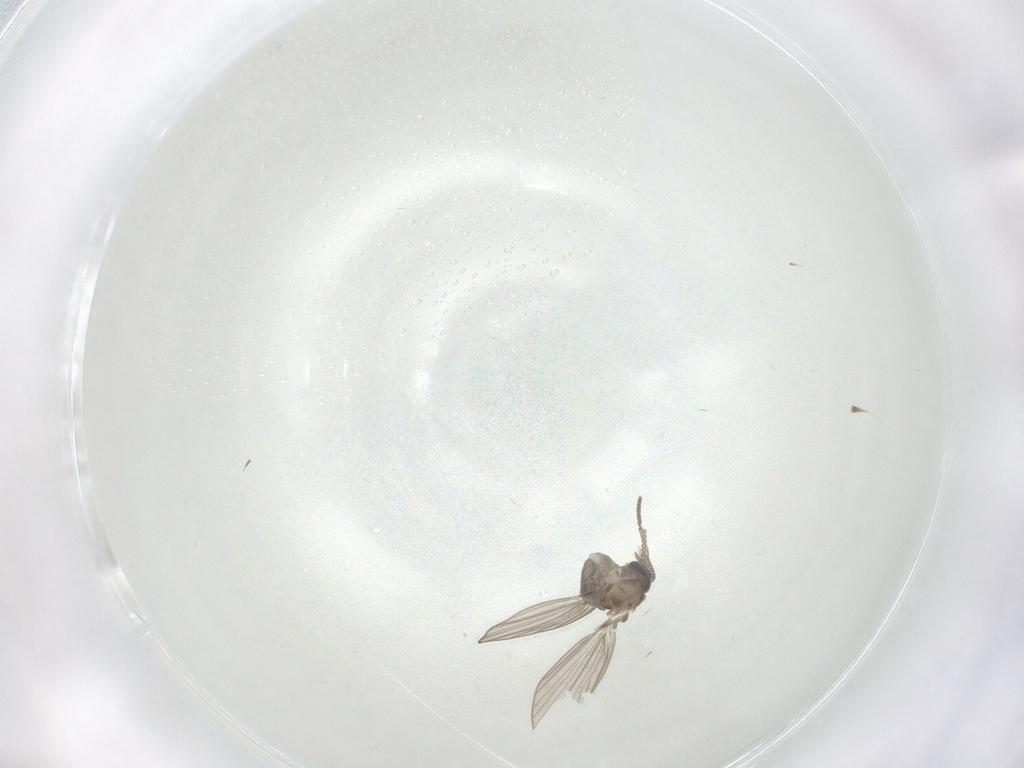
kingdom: Animalia
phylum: Arthropoda
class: Insecta
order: Diptera
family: Psychodidae
